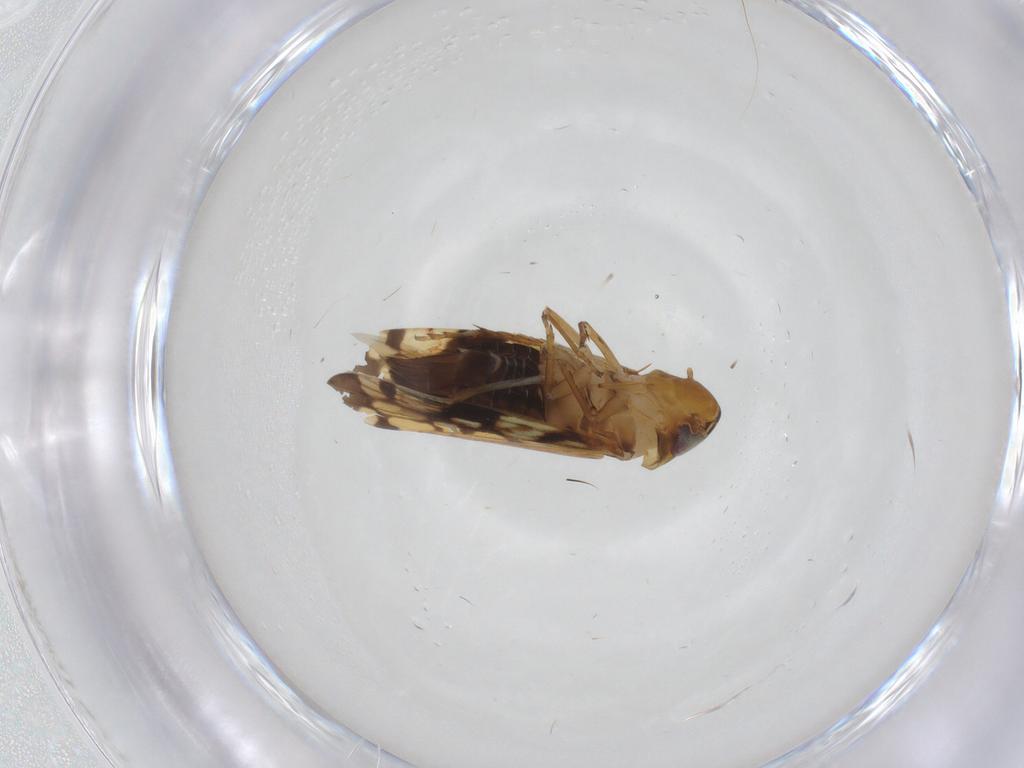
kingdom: Animalia
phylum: Arthropoda
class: Insecta
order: Hemiptera
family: Cicadellidae
